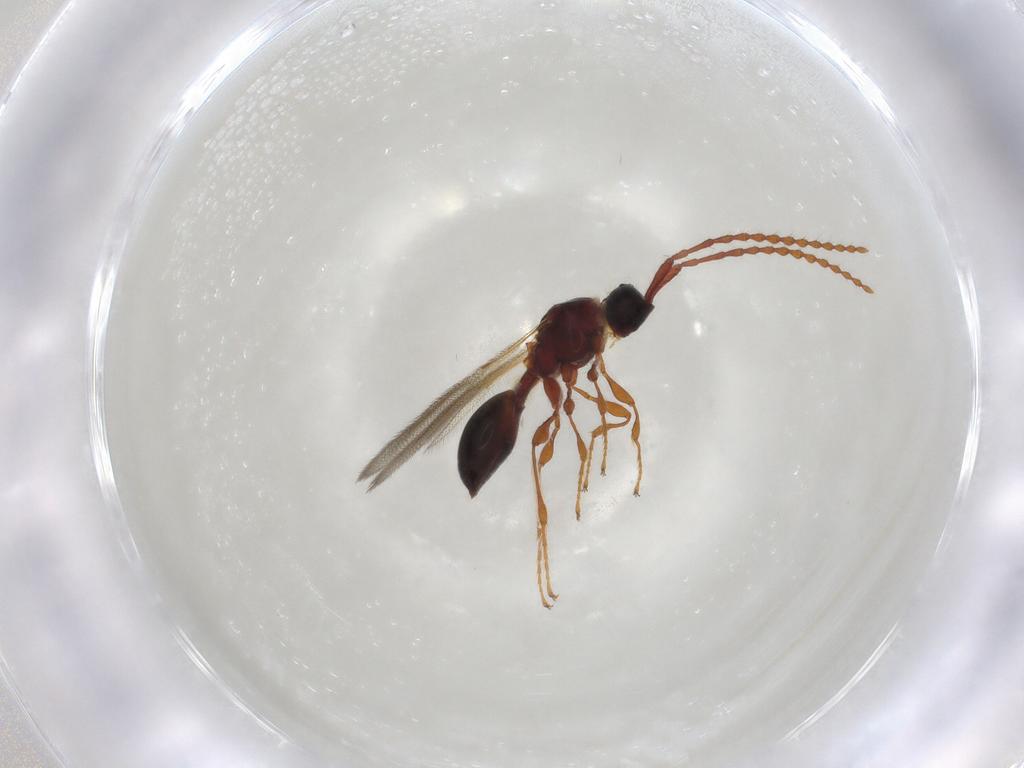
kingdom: Animalia
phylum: Arthropoda
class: Insecta
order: Hymenoptera
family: Diapriidae
